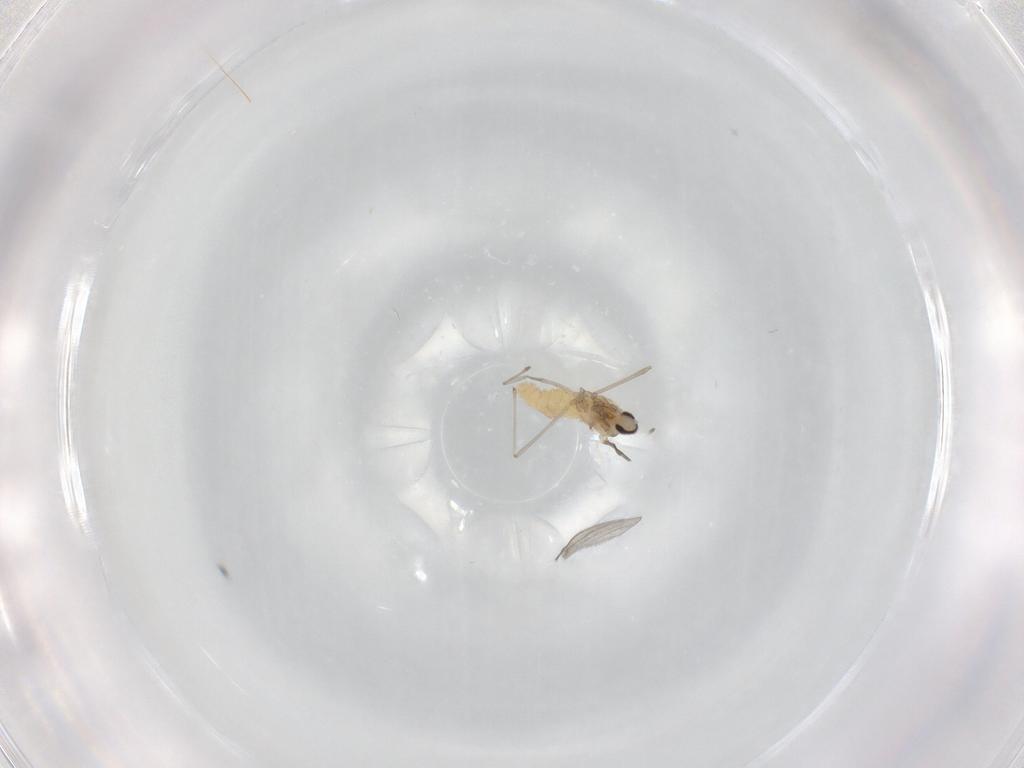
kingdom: Animalia
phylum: Arthropoda
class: Insecta
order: Diptera
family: Cecidomyiidae
